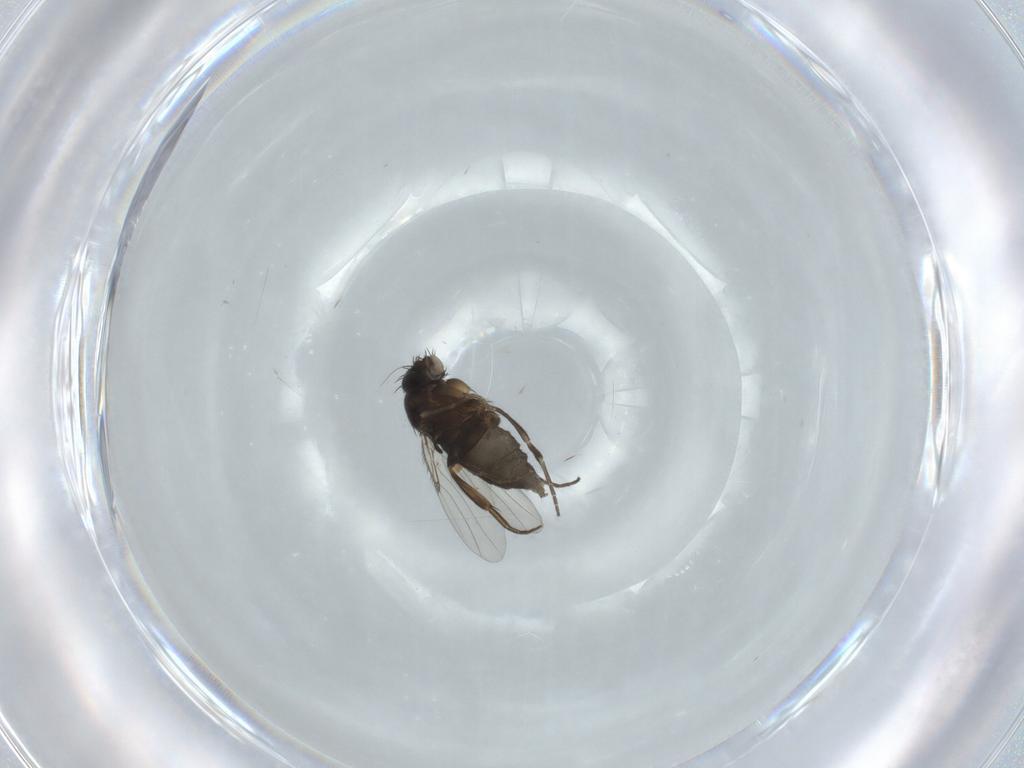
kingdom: Animalia
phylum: Arthropoda
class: Insecta
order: Diptera
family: Phoridae
